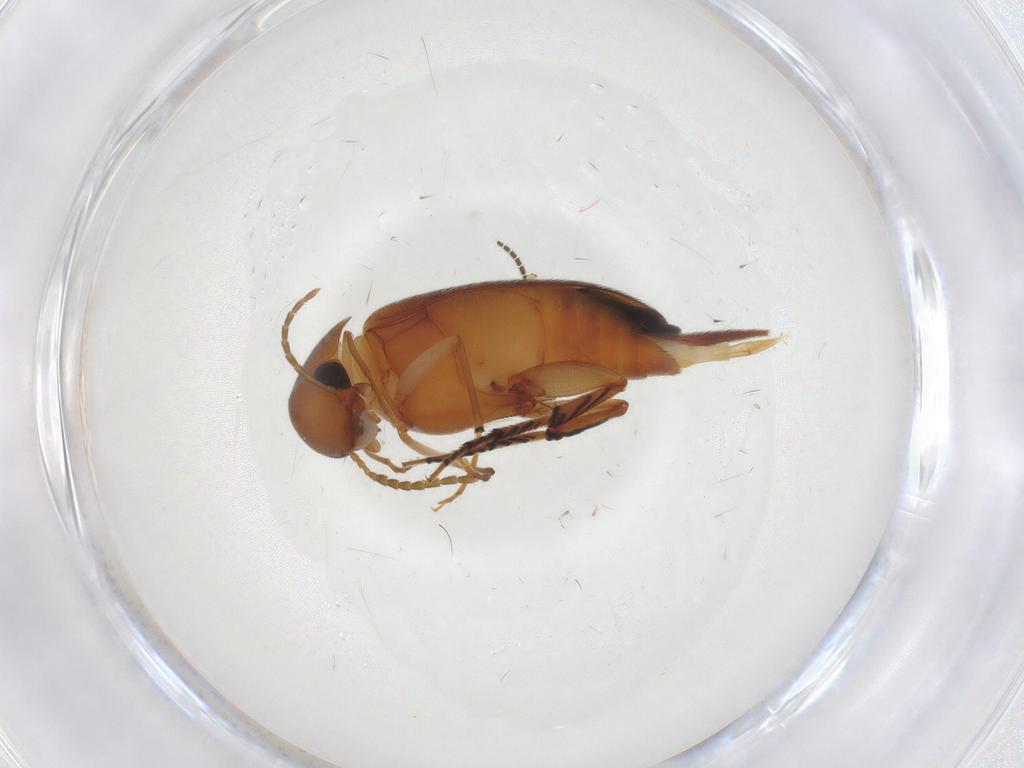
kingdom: Animalia
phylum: Arthropoda
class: Insecta
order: Coleoptera
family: Mordellidae
